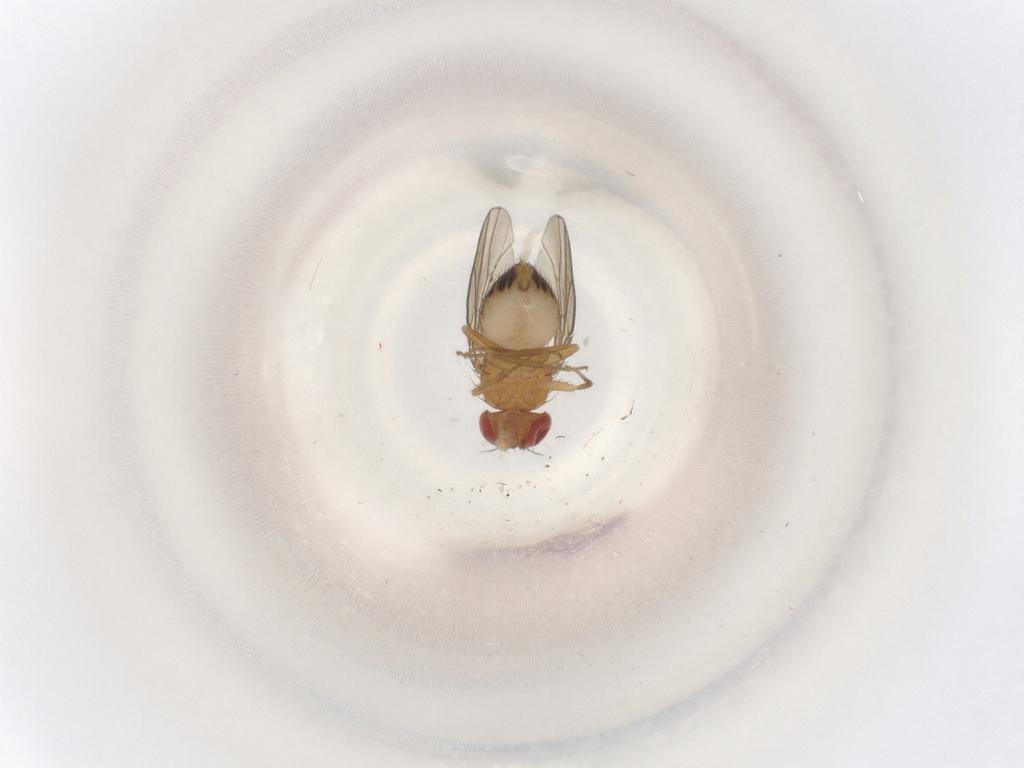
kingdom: Animalia
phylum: Arthropoda
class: Insecta
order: Diptera
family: Drosophilidae
